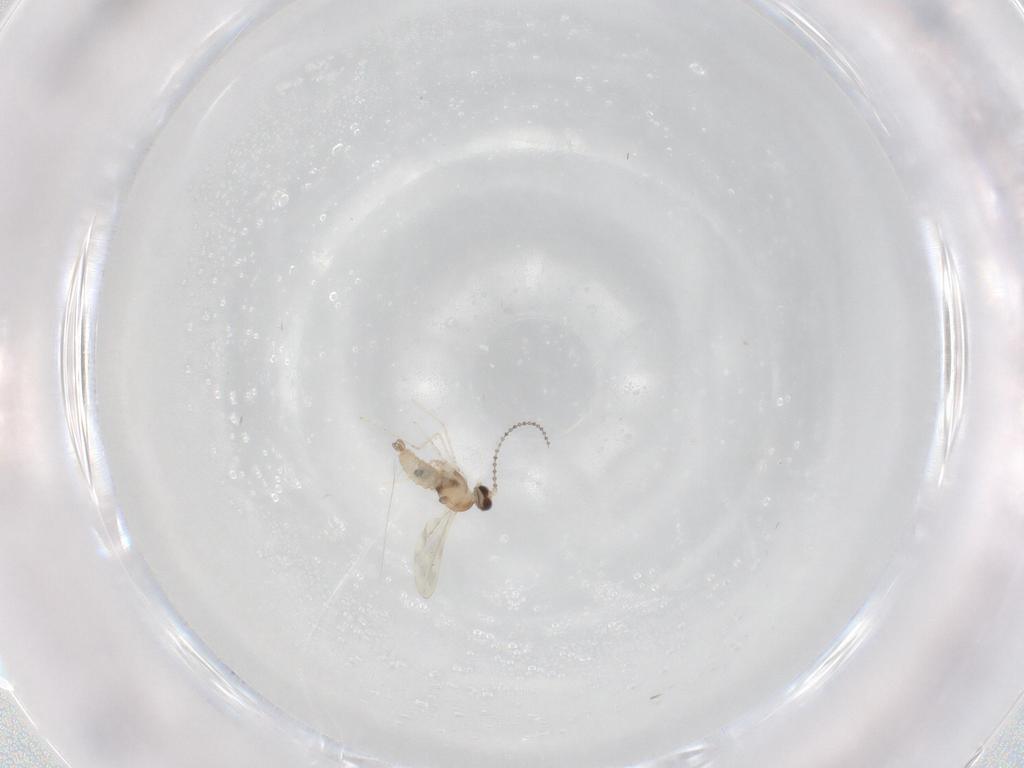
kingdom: Animalia
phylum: Arthropoda
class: Insecta
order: Diptera
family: Cecidomyiidae
